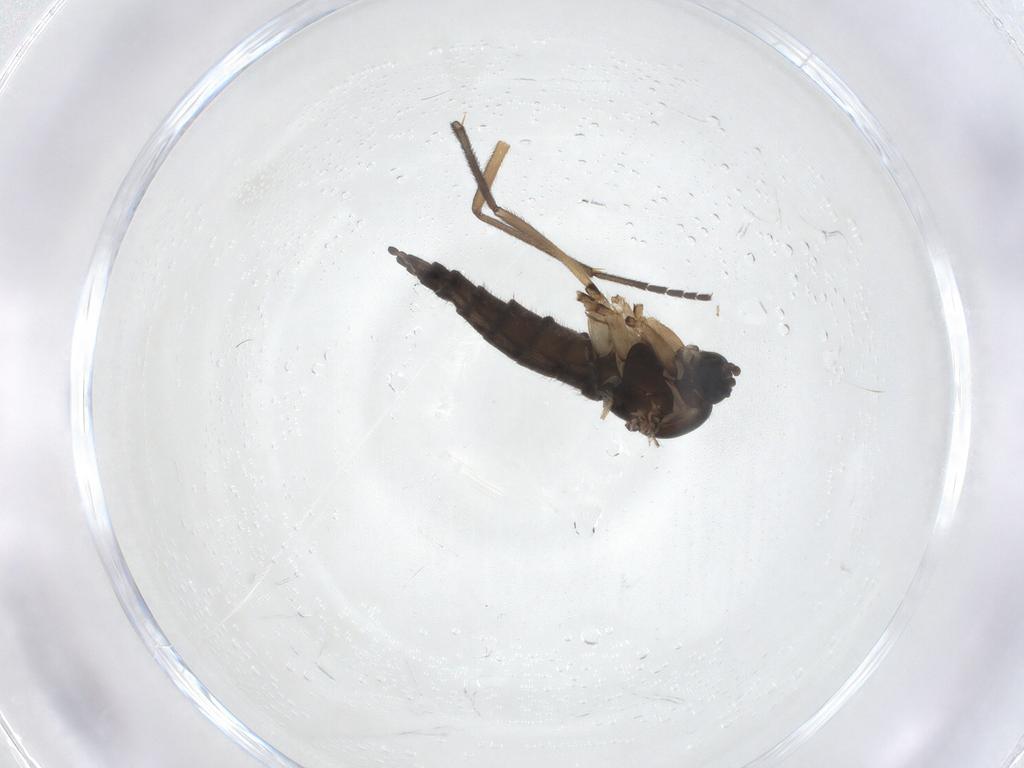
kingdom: Animalia
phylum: Arthropoda
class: Insecta
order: Diptera
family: Sciaridae
